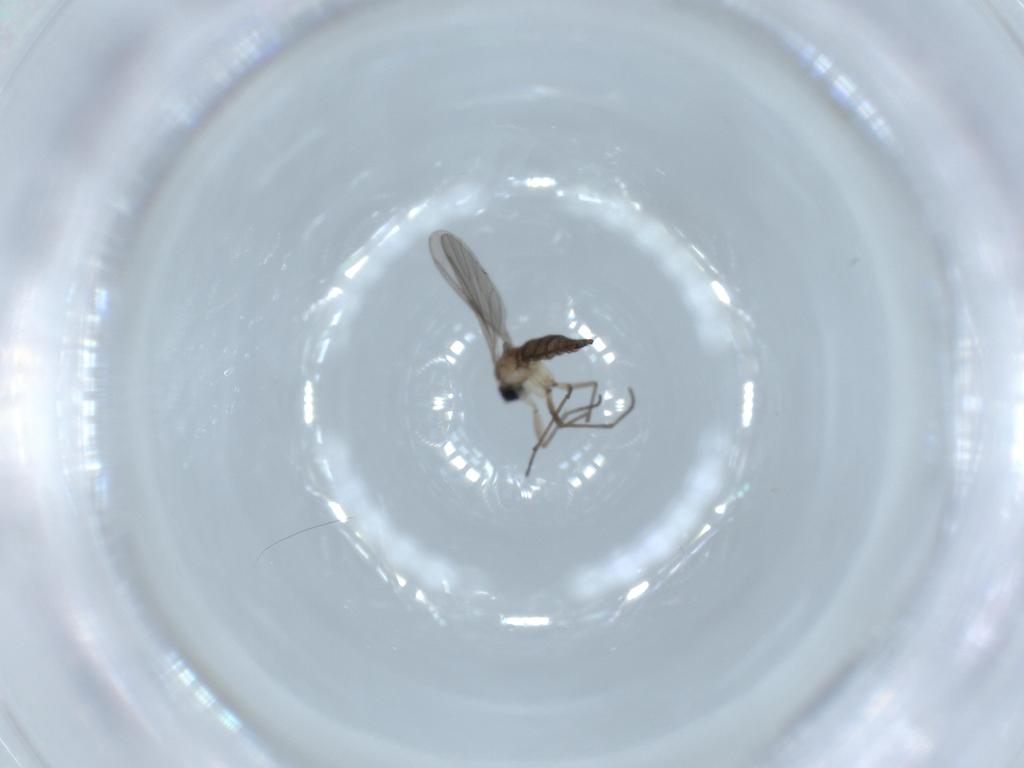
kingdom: Animalia
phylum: Arthropoda
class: Insecta
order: Diptera
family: Sciaridae
